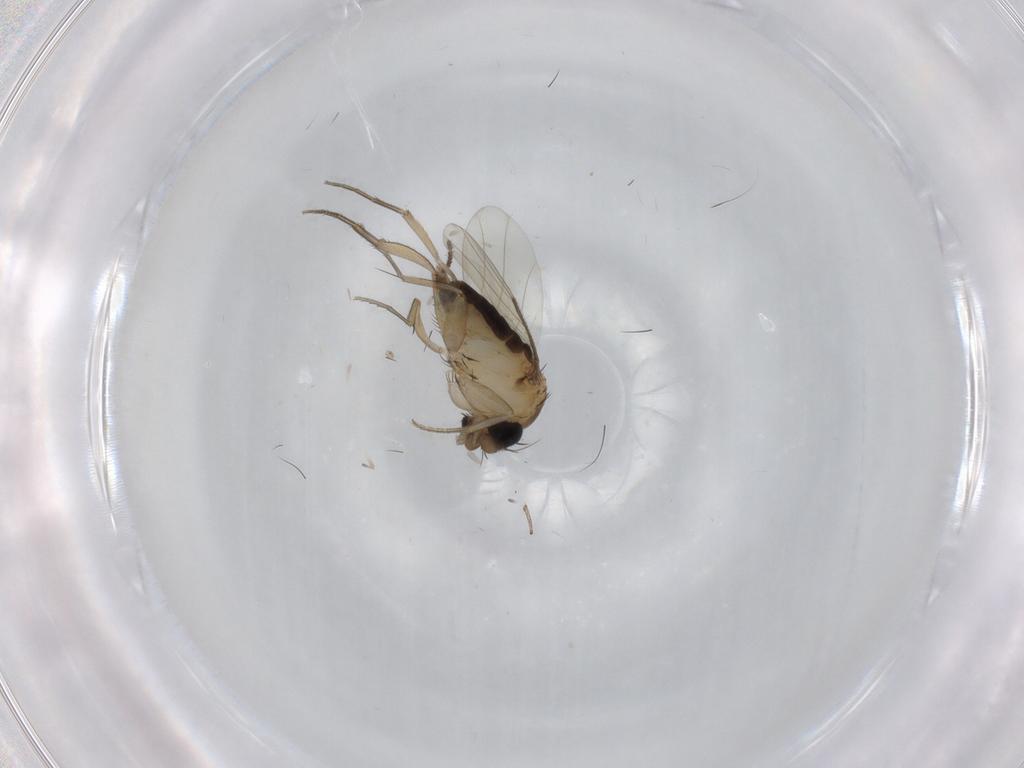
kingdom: Animalia
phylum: Arthropoda
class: Insecta
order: Diptera
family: Phoridae
